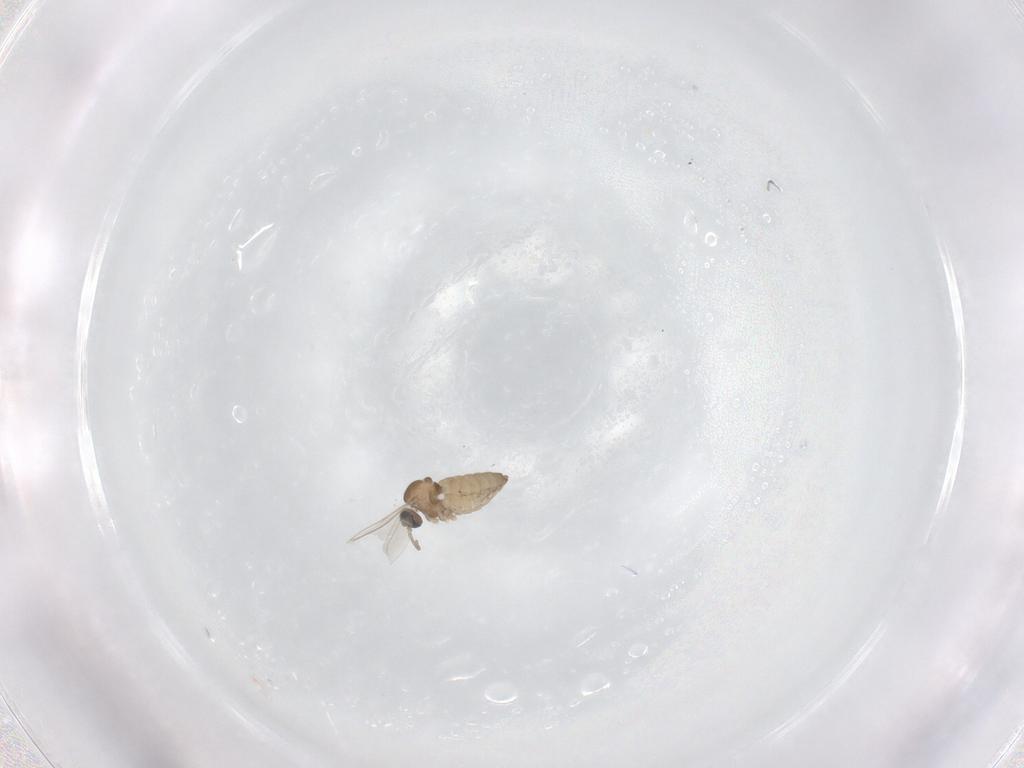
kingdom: Animalia
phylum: Arthropoda
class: Insecta
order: Diptera
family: Cecidomyiidae
